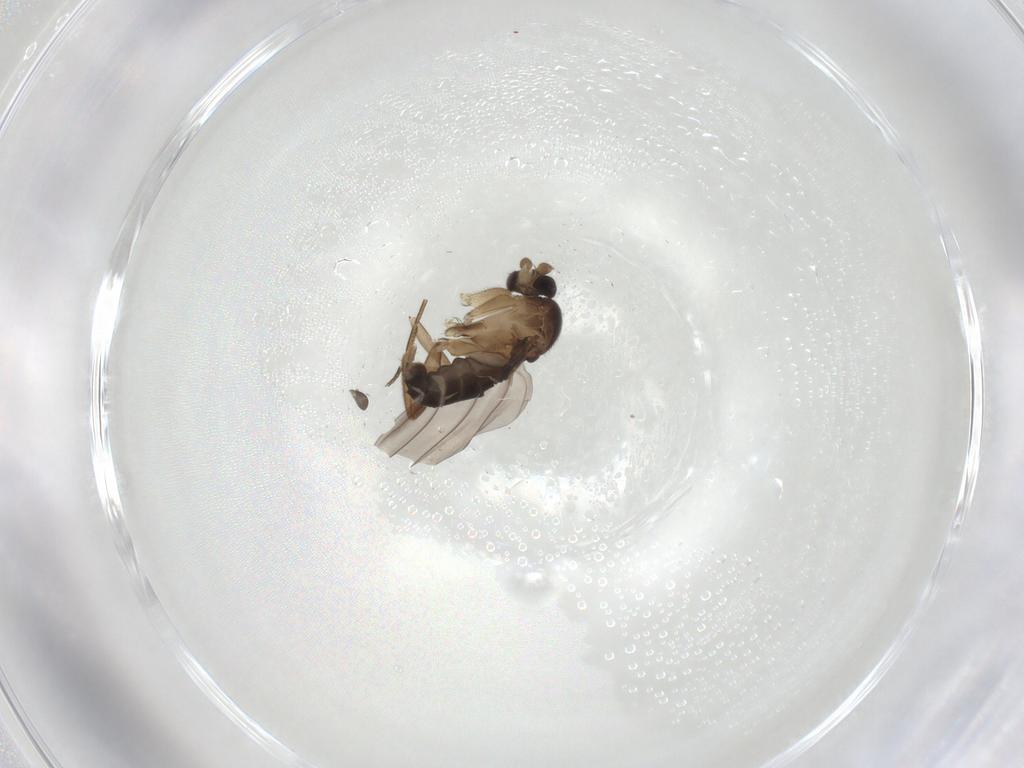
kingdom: Animalia
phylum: Arthropoda
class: Insecta
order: Diptera
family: Phoridae
